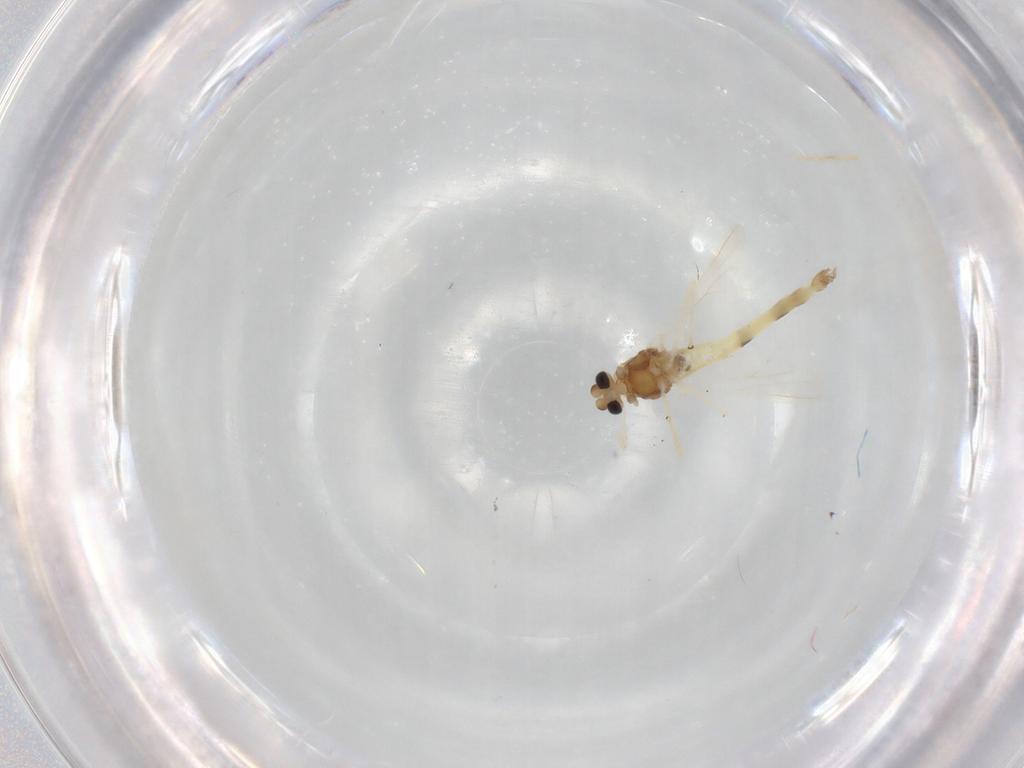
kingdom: Animalia
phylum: Arthropoda
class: Insecta
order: Diptera
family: Chironomidae
